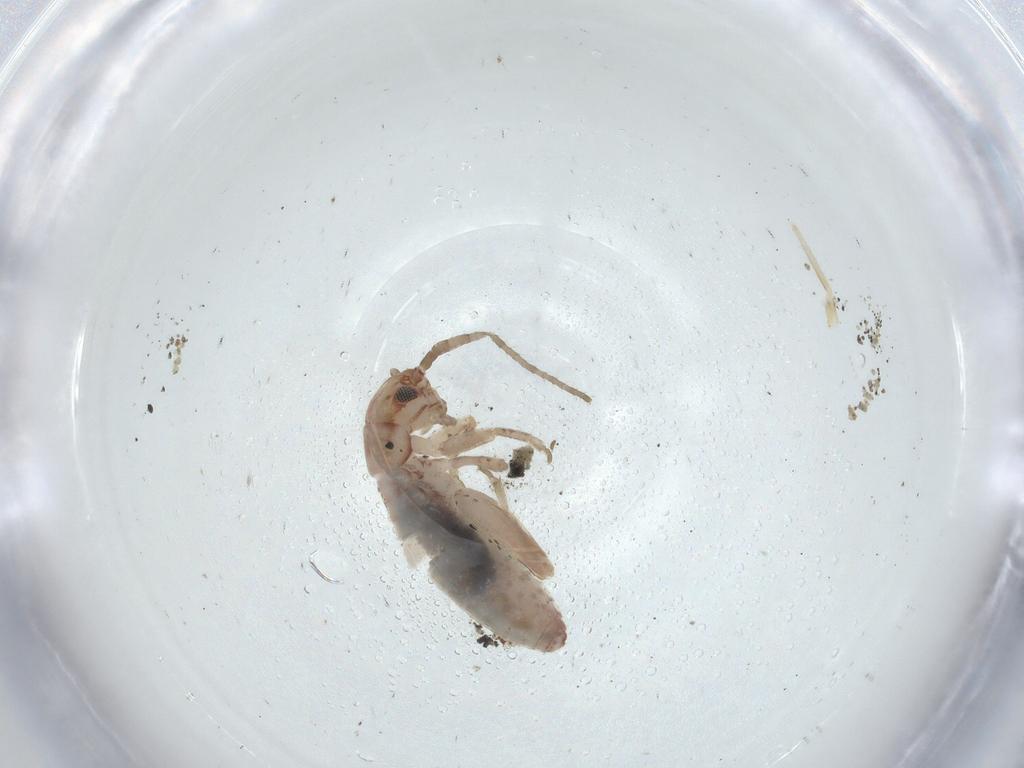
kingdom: Animalia
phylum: Arthropoda
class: Insecta
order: Orthoptera
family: Gryllidae
